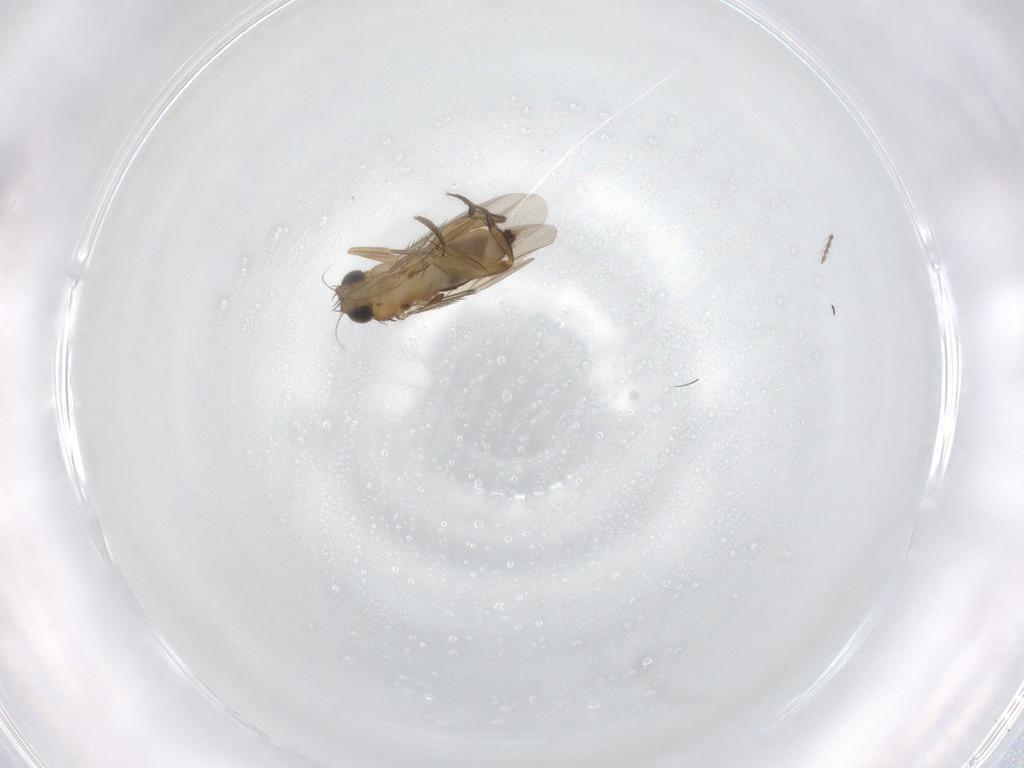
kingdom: Animalia
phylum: Arthropoda
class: Insecta
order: Diptera
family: Phoridae
